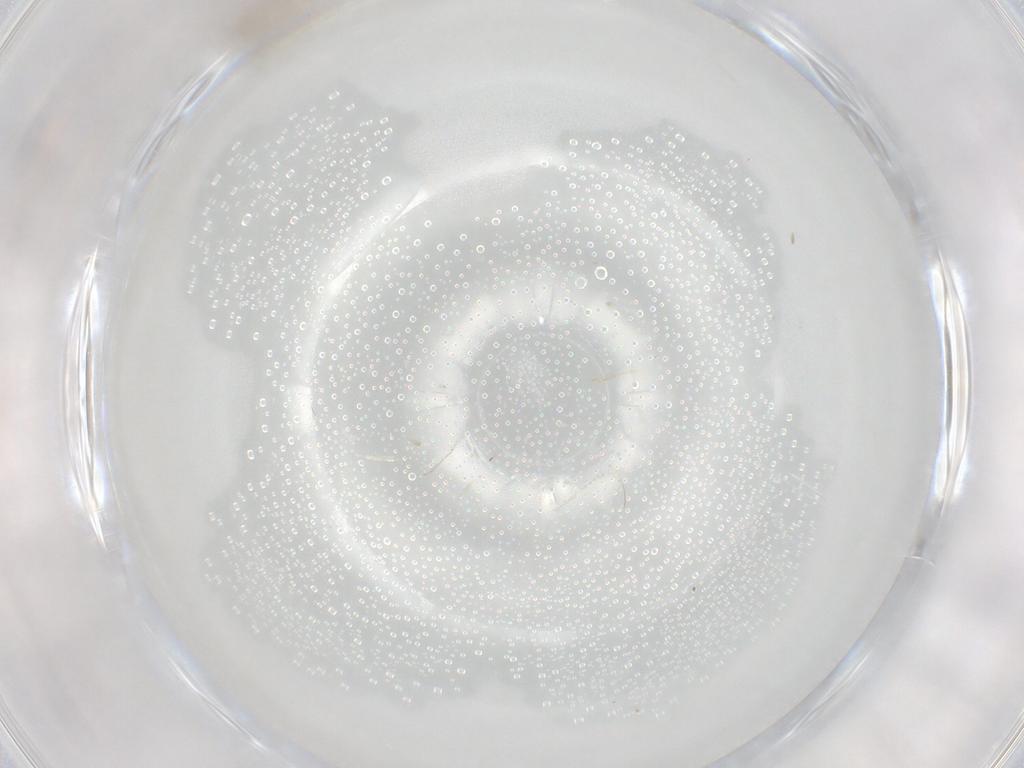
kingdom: Animalia
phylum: Arthropoda
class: Insecta
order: Diptera
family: Cecidomyiidae
